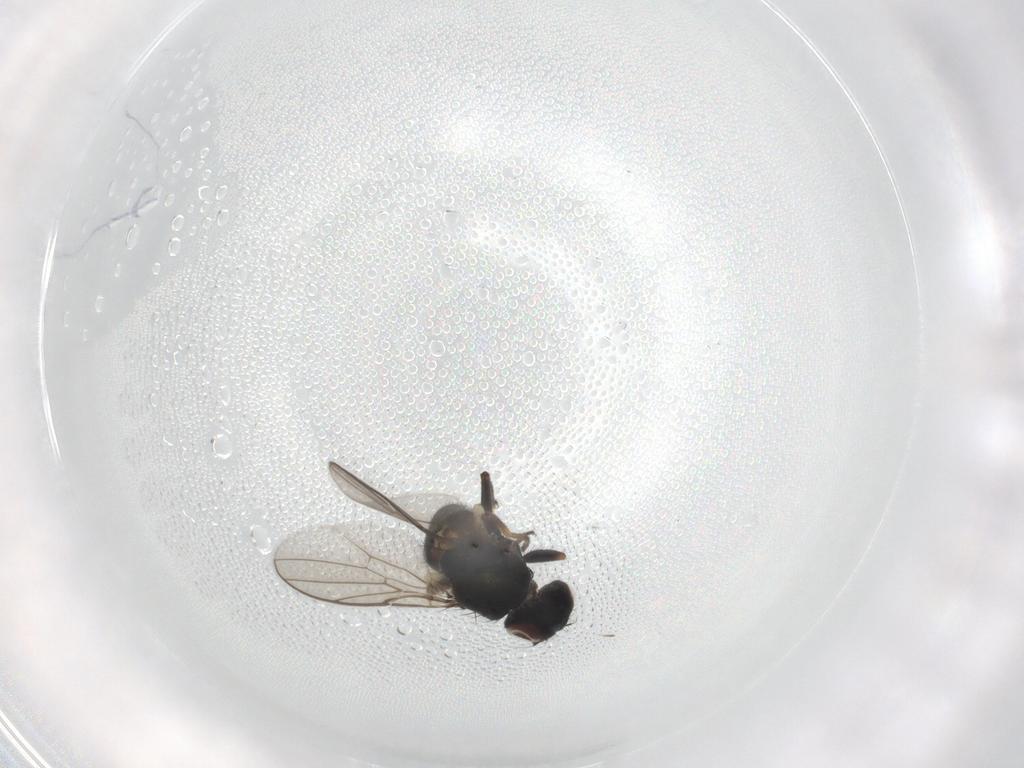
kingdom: Animalia
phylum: Arthropoda
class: Insecta
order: Diptera
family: Chloropidae
